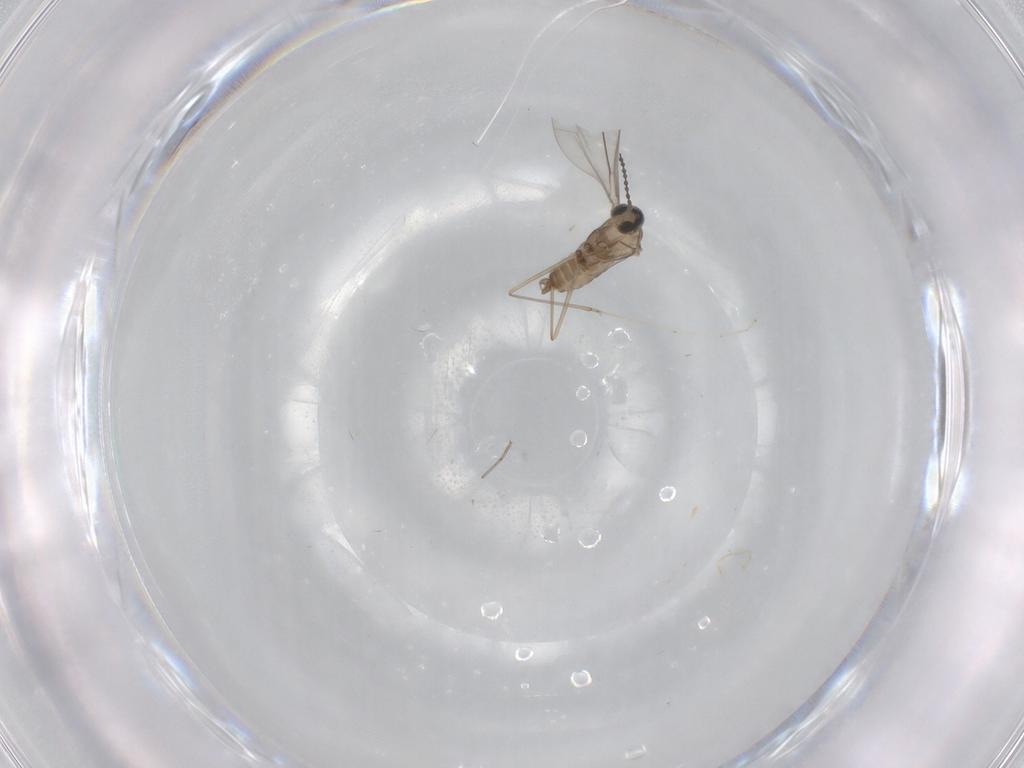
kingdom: Animalia
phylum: Arthropoda
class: Insecta
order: Diptera
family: Cecidomyiidae
